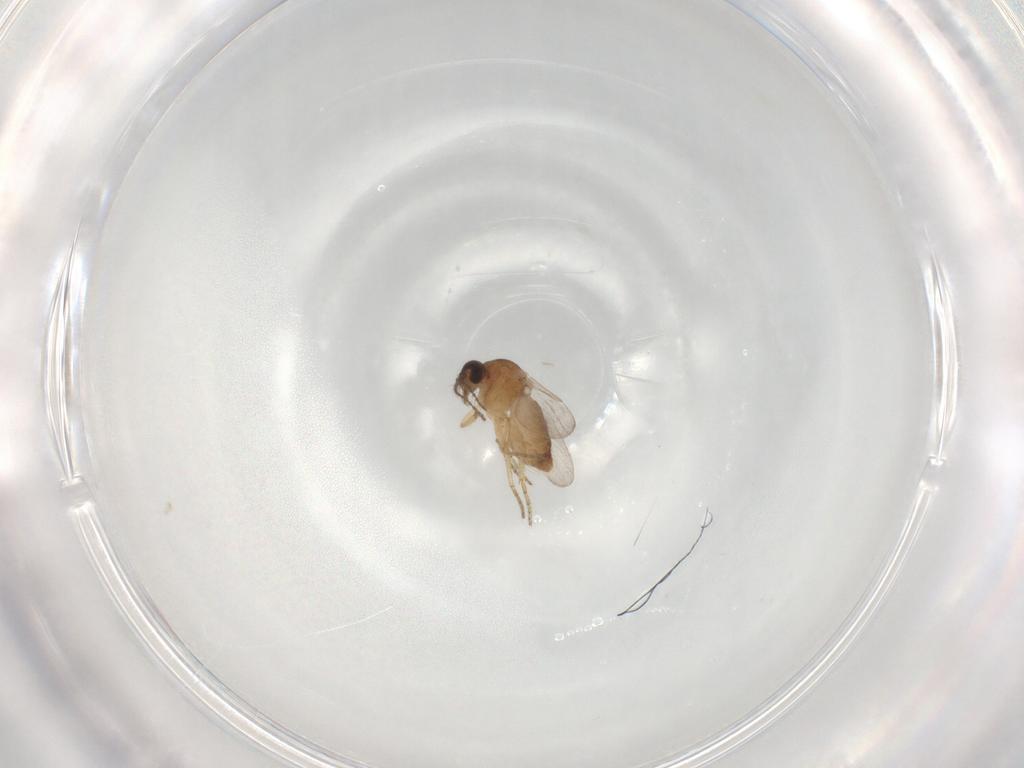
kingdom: Animalia
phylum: Arthropoda
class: Insecta
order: Diptera
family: Ceratopogonidae
